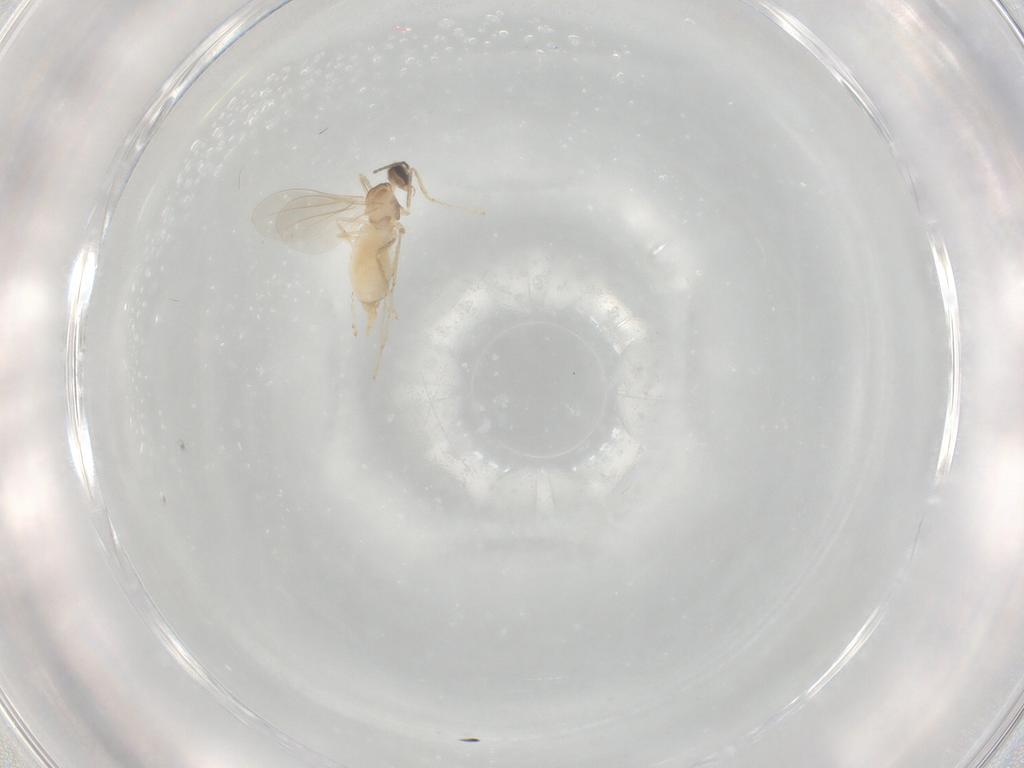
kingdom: Animalia
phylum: Arthropoda
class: Insecta
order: Diptera
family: Cecidomyiidae
